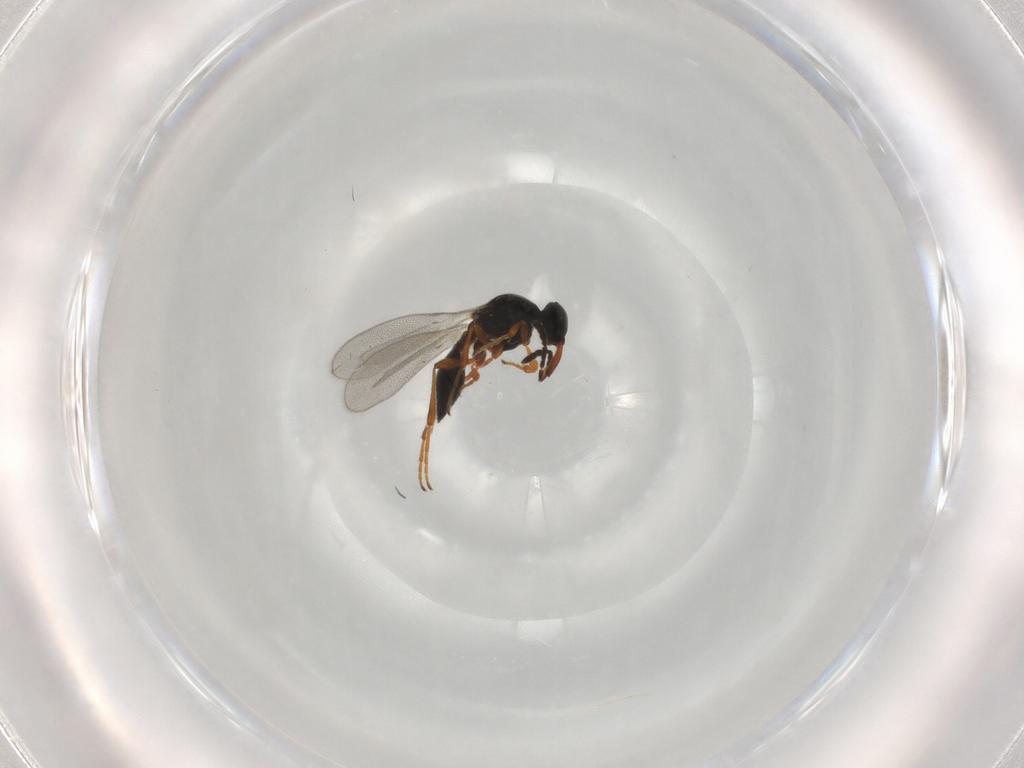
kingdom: Animalia
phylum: Arthropoda
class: Insecta
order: Hymenoptera
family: Platygastridae
